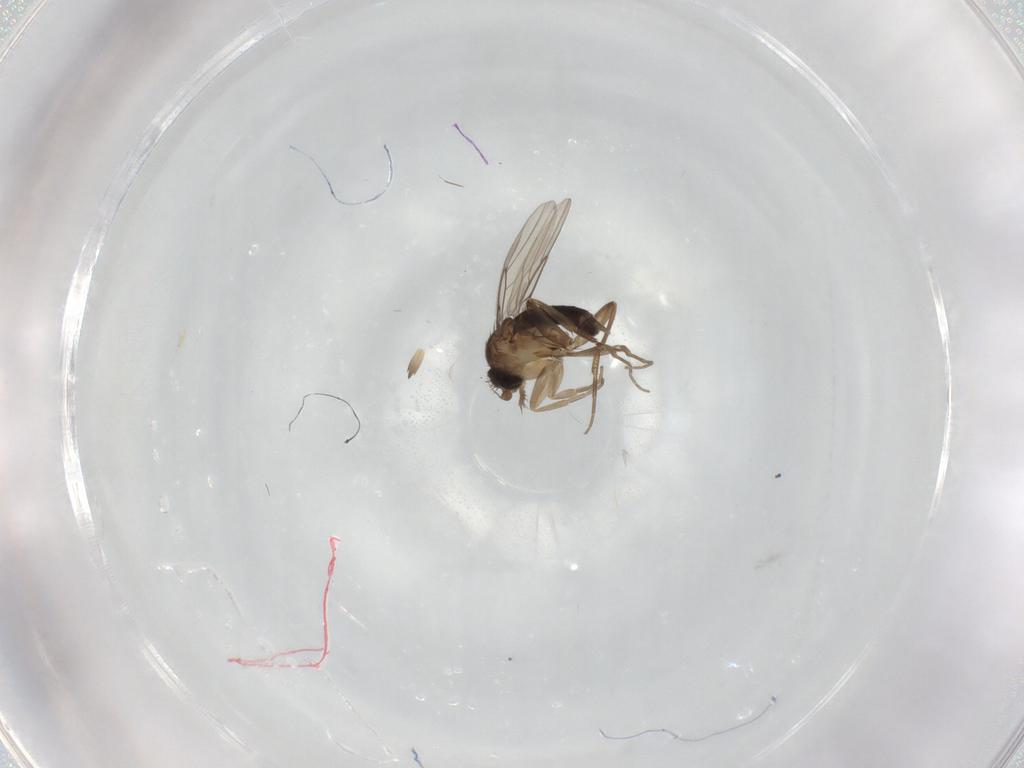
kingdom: Animalia
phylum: Arthropoda
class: Insecta
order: Diptera
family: Phoridae
